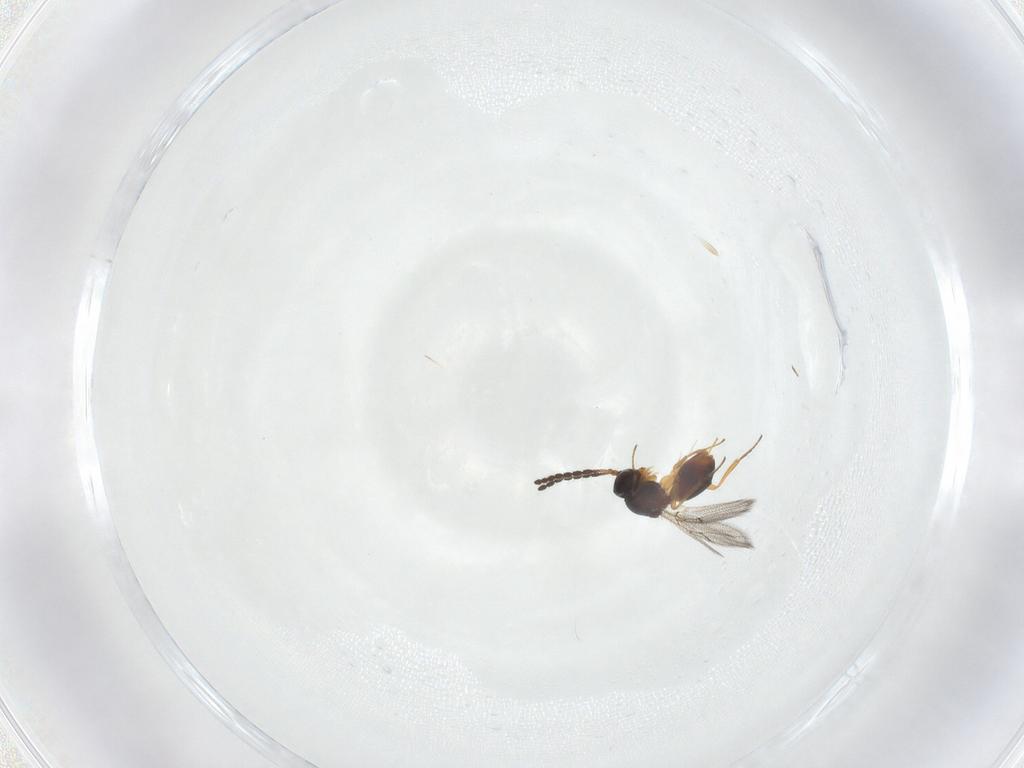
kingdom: Animalia
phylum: Arthropoda
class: Insecta
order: Hymenoptera
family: Figitidae
